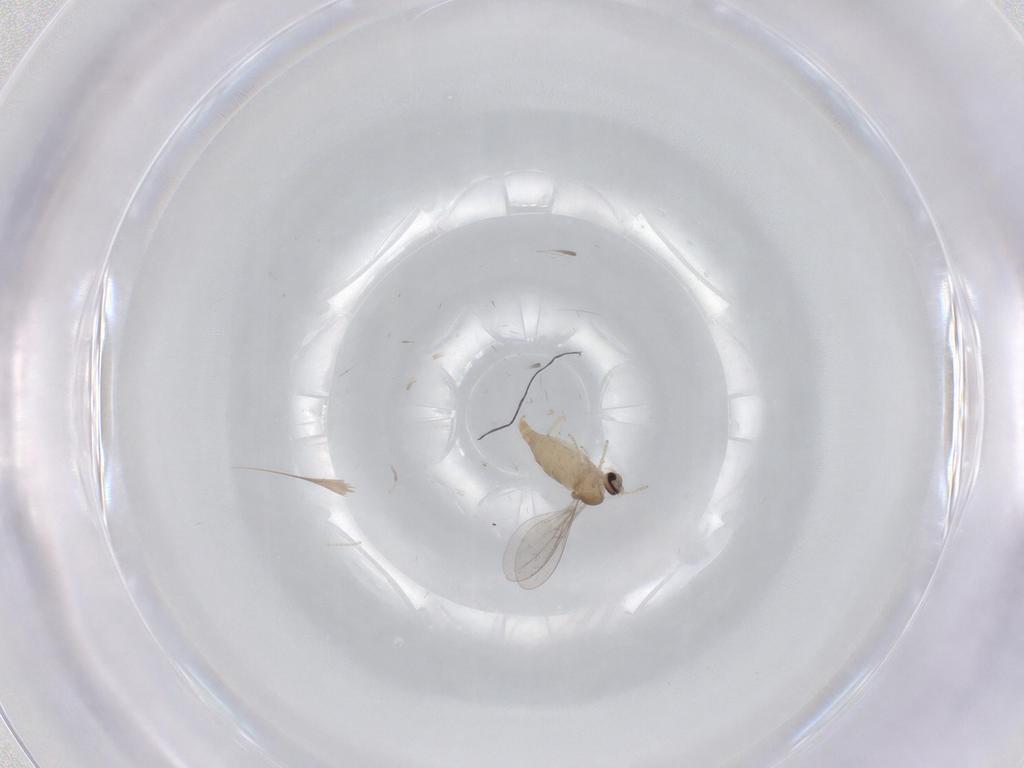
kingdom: Animalia
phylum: Arthropoda
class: Insecta
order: Diptera
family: Cecidomyiidae
